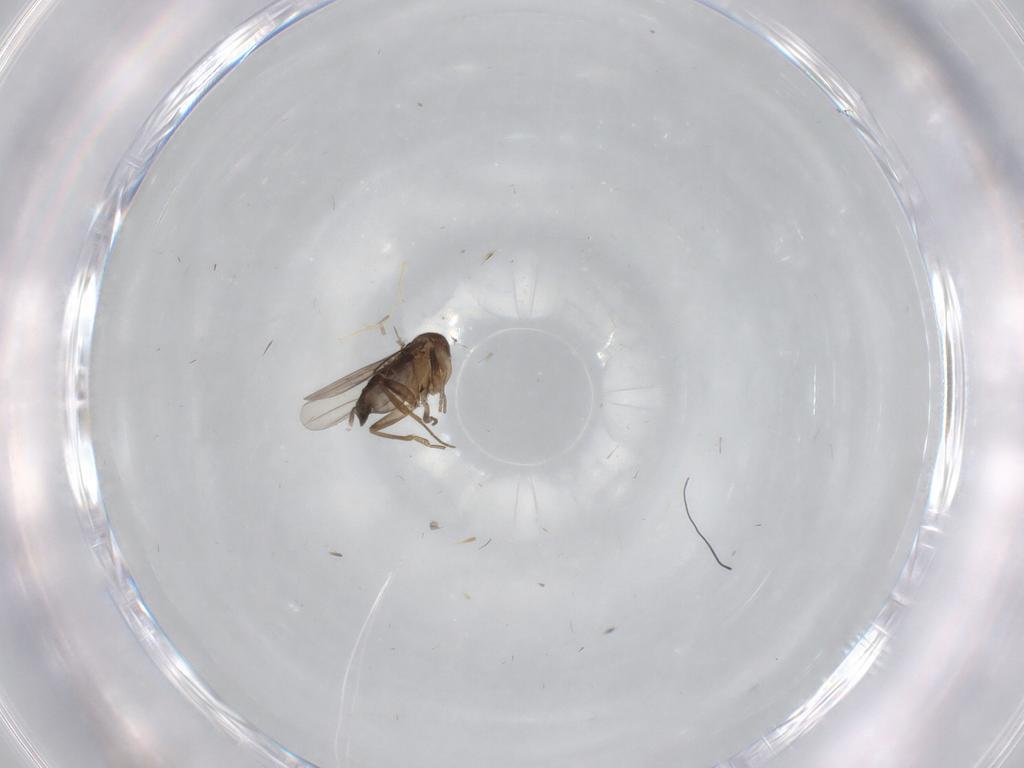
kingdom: Animalia
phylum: Arthropoda
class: Insecta
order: Diptera
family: Phoridae
